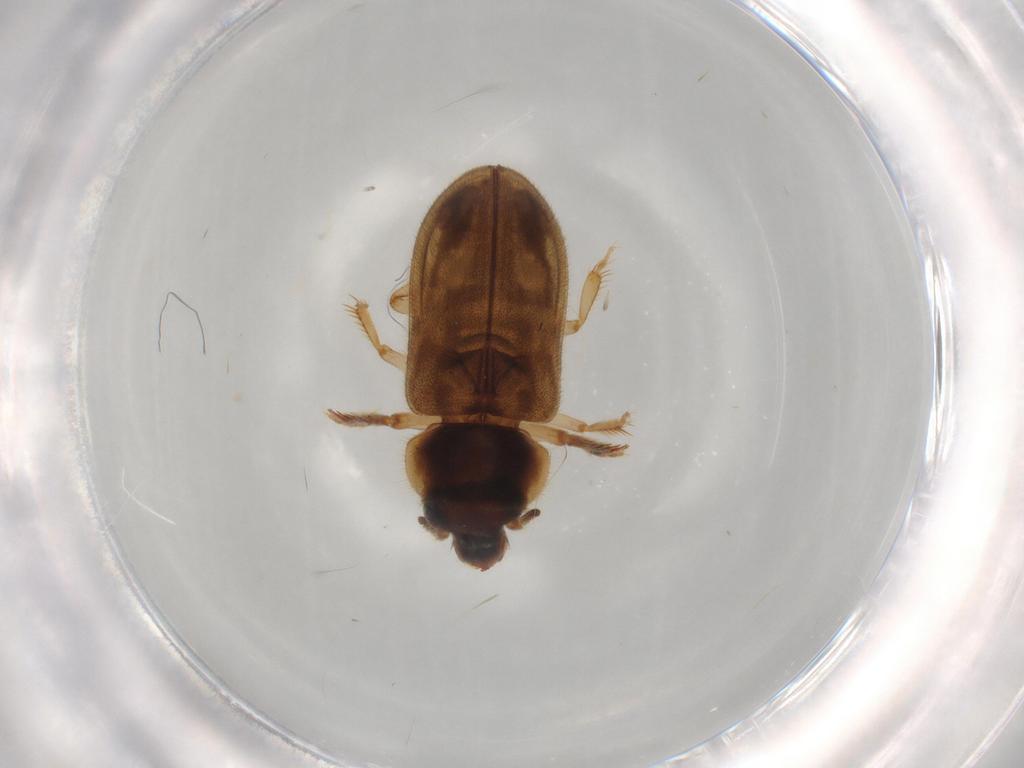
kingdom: Animalia
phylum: Arthropoda
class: Insecta
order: Coleoptera
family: Heteroceridae
